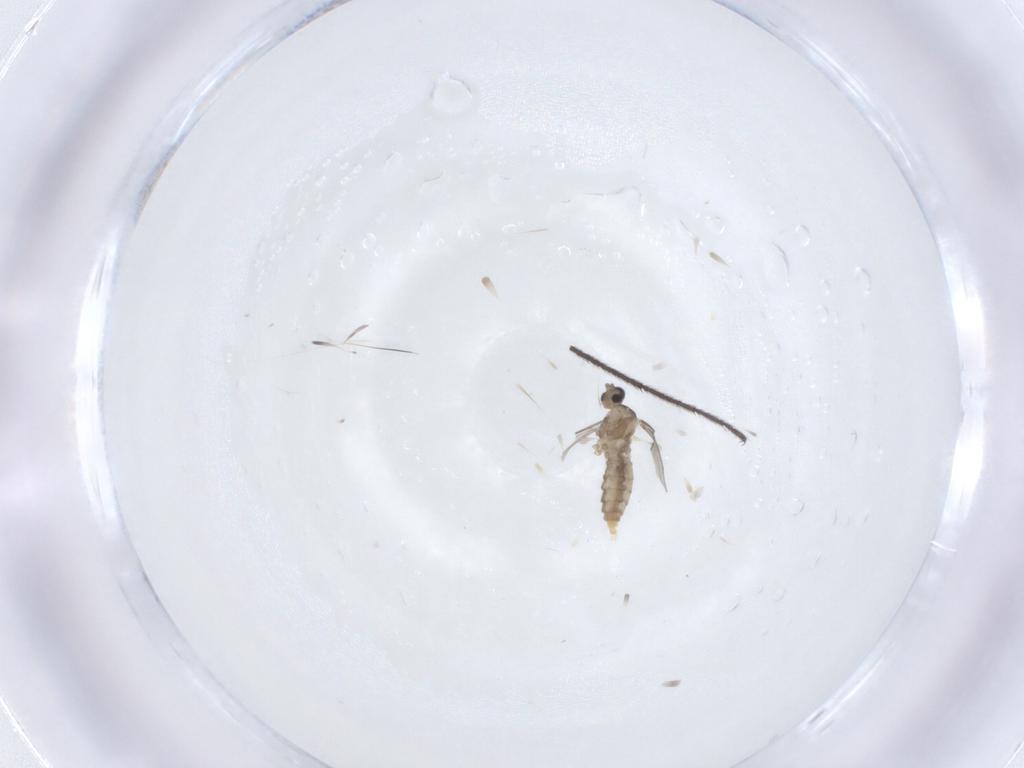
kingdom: Animalia
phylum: Arthropoda
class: Insecta
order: Diptera
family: Cecidomyiidae
